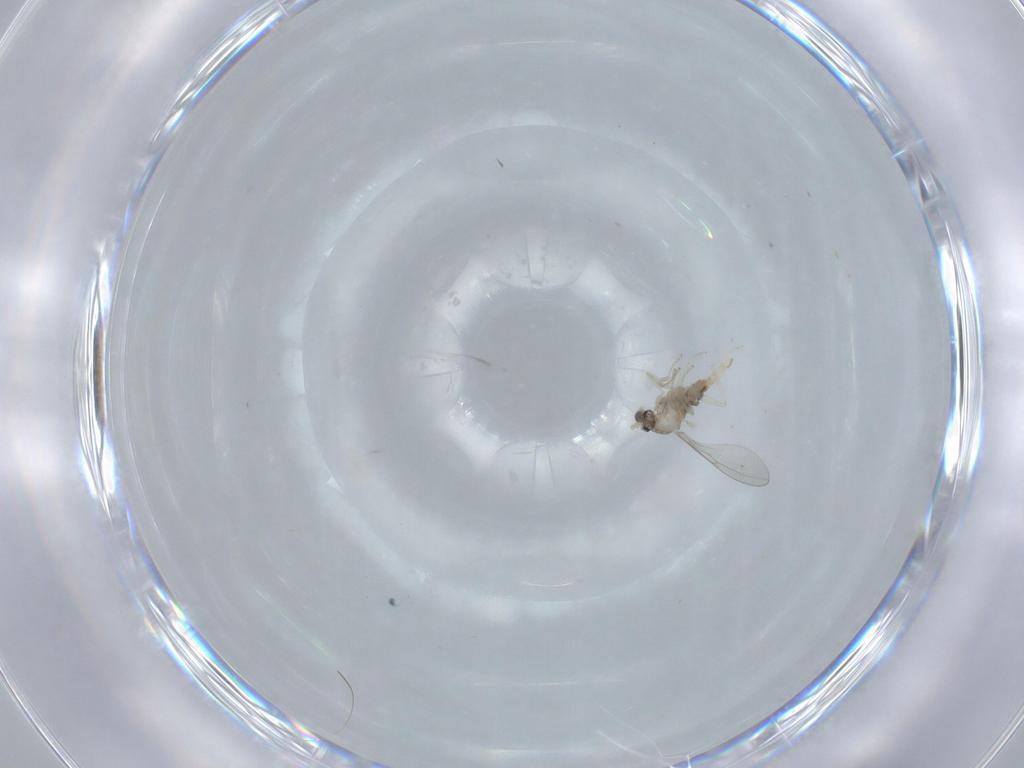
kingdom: Animalia
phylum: Arthropoda
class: Insecta
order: Diptera
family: Cecidomyiidae
